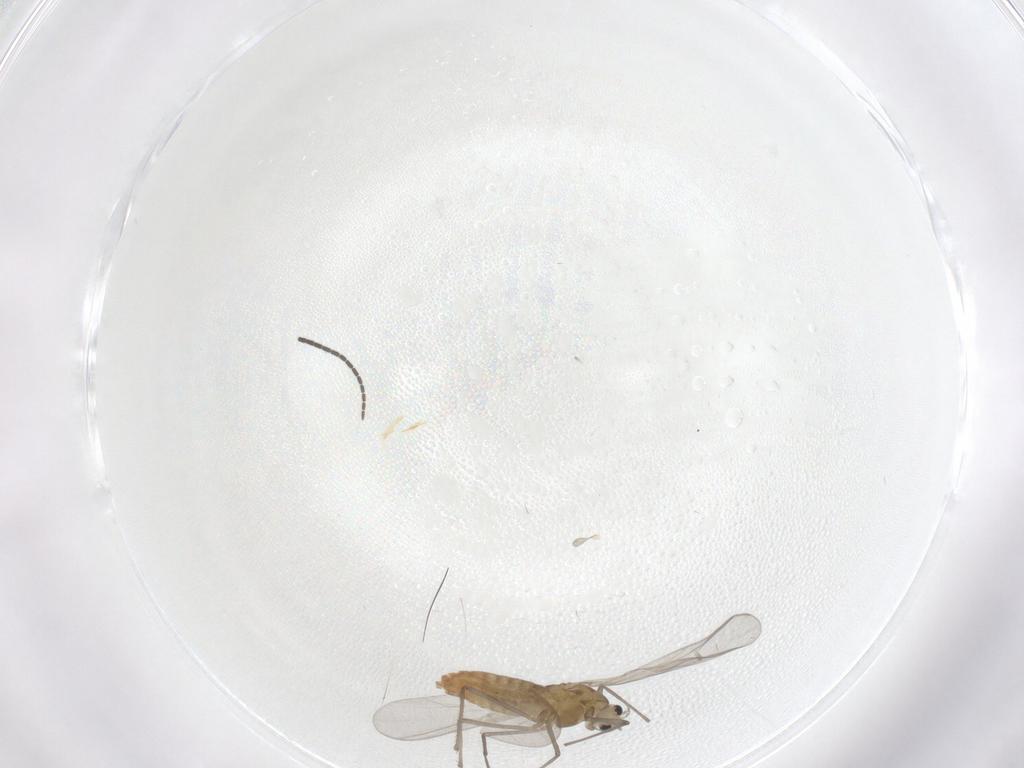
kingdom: Animalia
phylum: Arthropoda
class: Insecta
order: Diptera
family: Chironomidae
